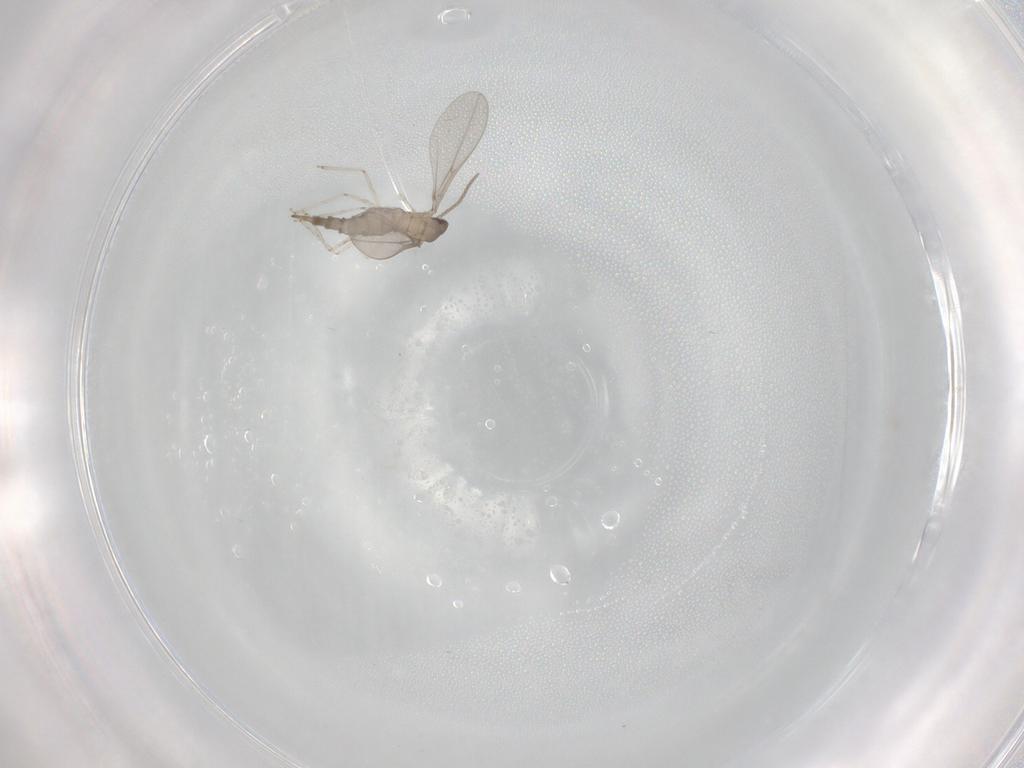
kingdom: Animalia
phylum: Arthropoda
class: Insecta
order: Diptera
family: Cecidomyiidae
